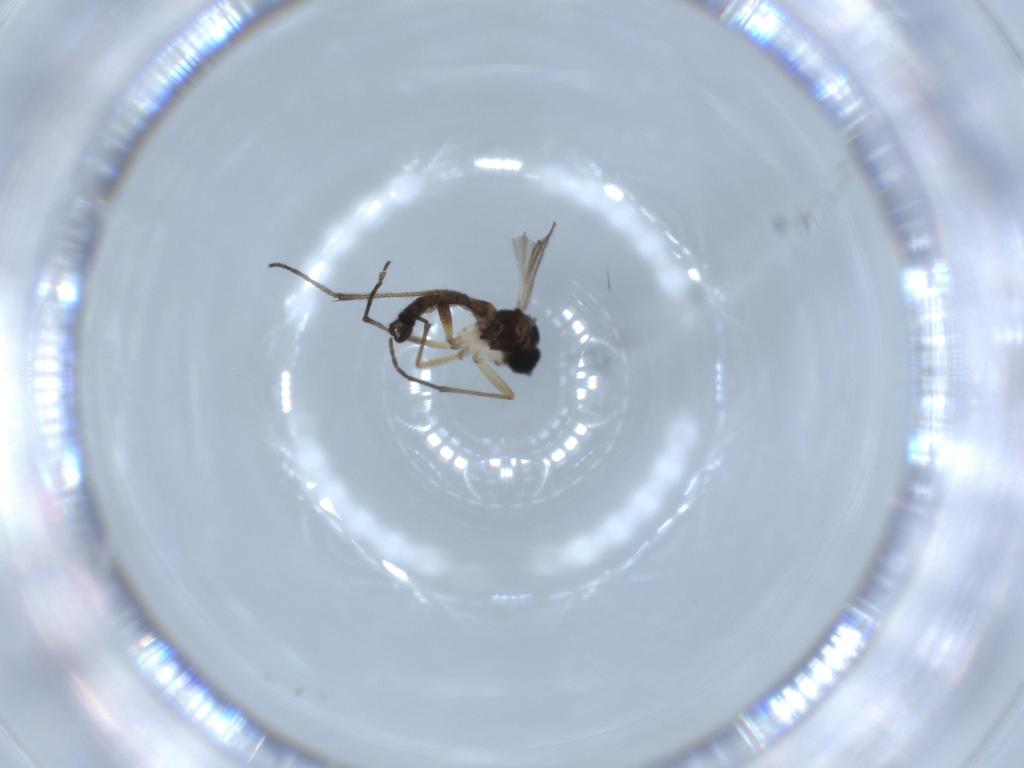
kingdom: Animalia
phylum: Arthropoda
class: Insecta
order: Diptera
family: Sciaridae
